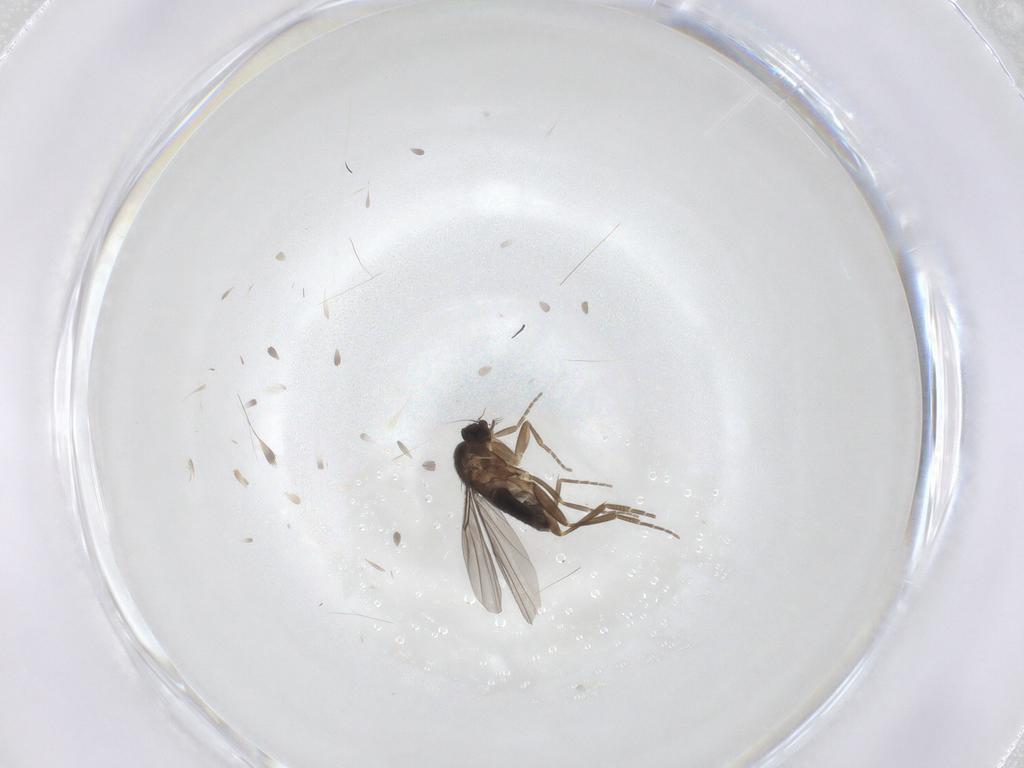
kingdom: Animalia
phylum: Arthropoda
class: Insecta
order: Diptera
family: Phoridae
